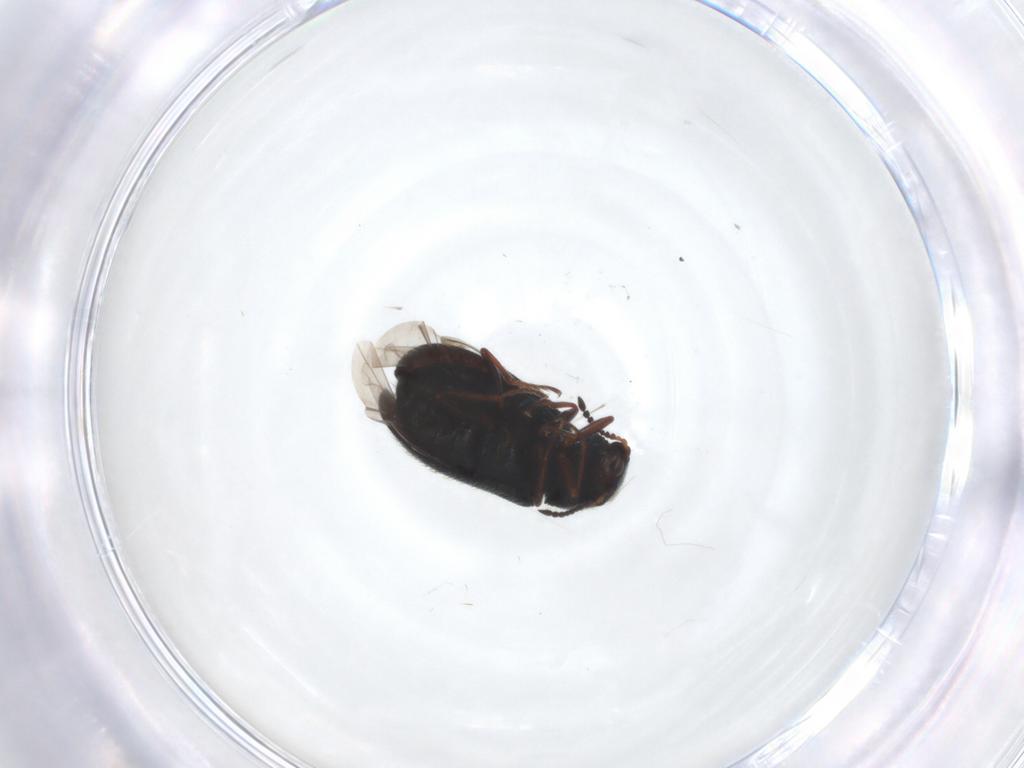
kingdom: Animalia
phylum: Arthropoda
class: Insecta
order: Coleoptera
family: Melyridae
